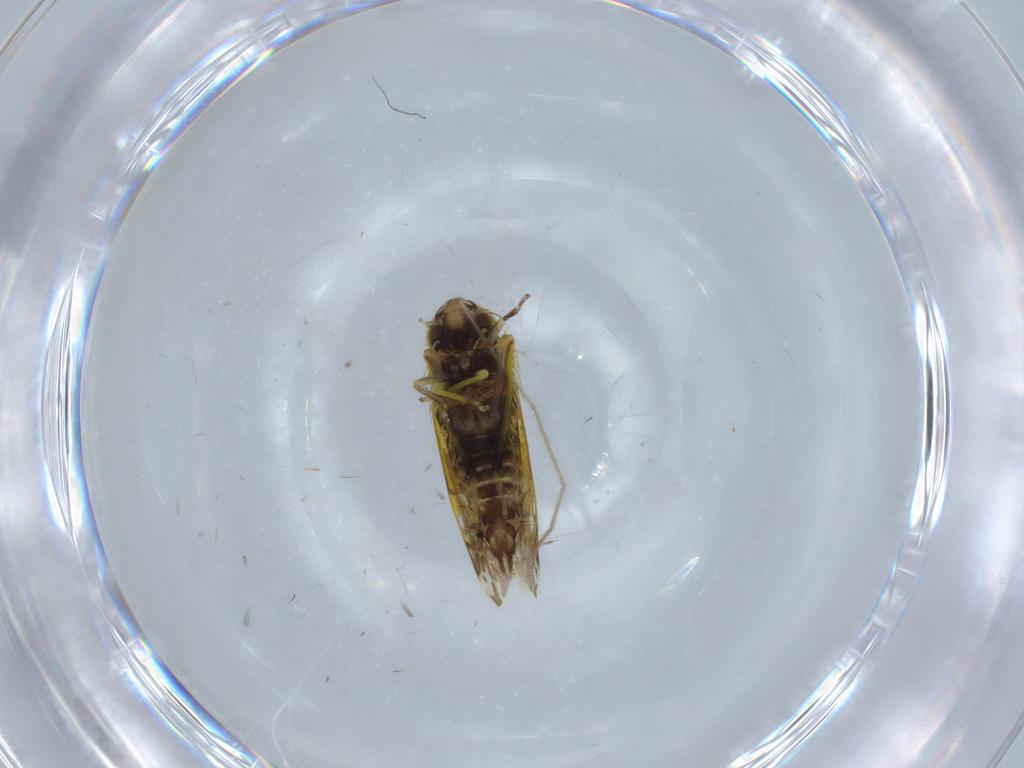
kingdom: Animalia
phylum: Arthropoda
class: Insecta
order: Hemiptera
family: Cicadellidae
